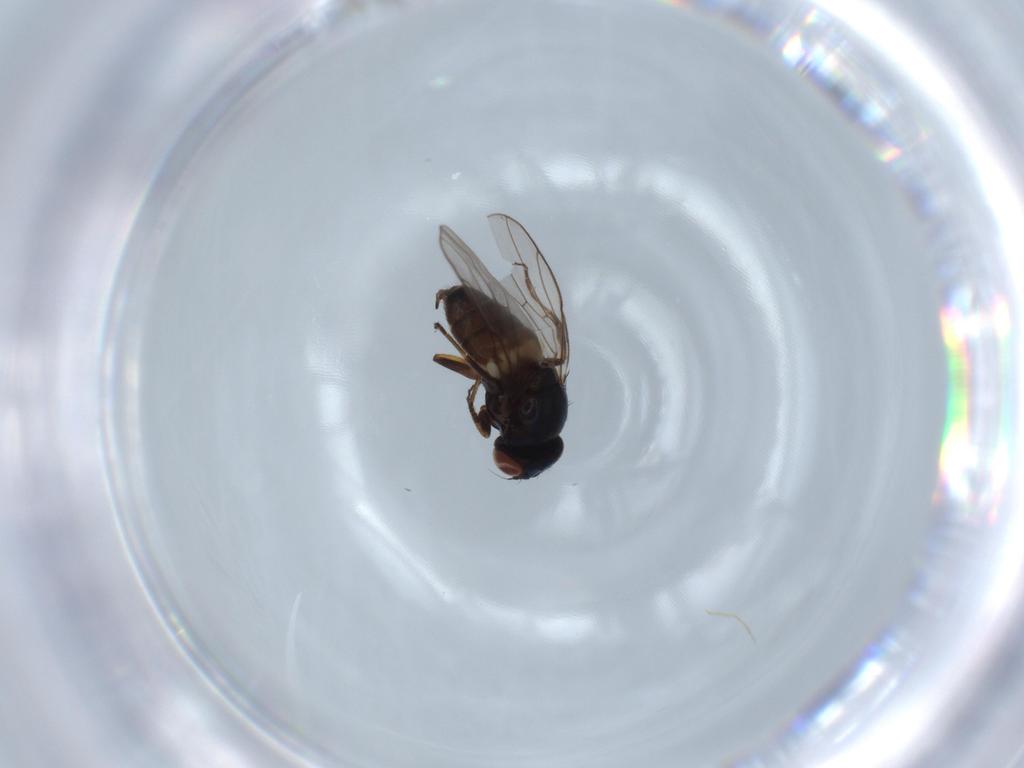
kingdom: Animalia
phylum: Arthropoda
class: Insecta
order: Diptera
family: Chloropidae
